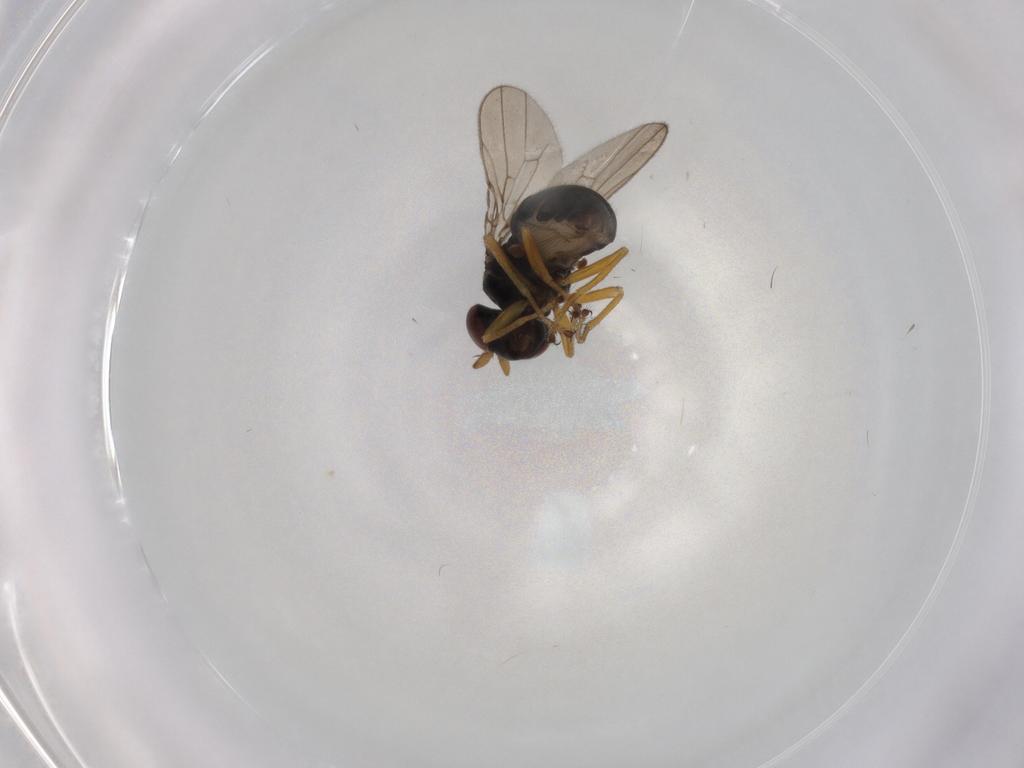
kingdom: Animalia
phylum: Arthropoda
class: Insecta
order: Diptera
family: Ephydridae
